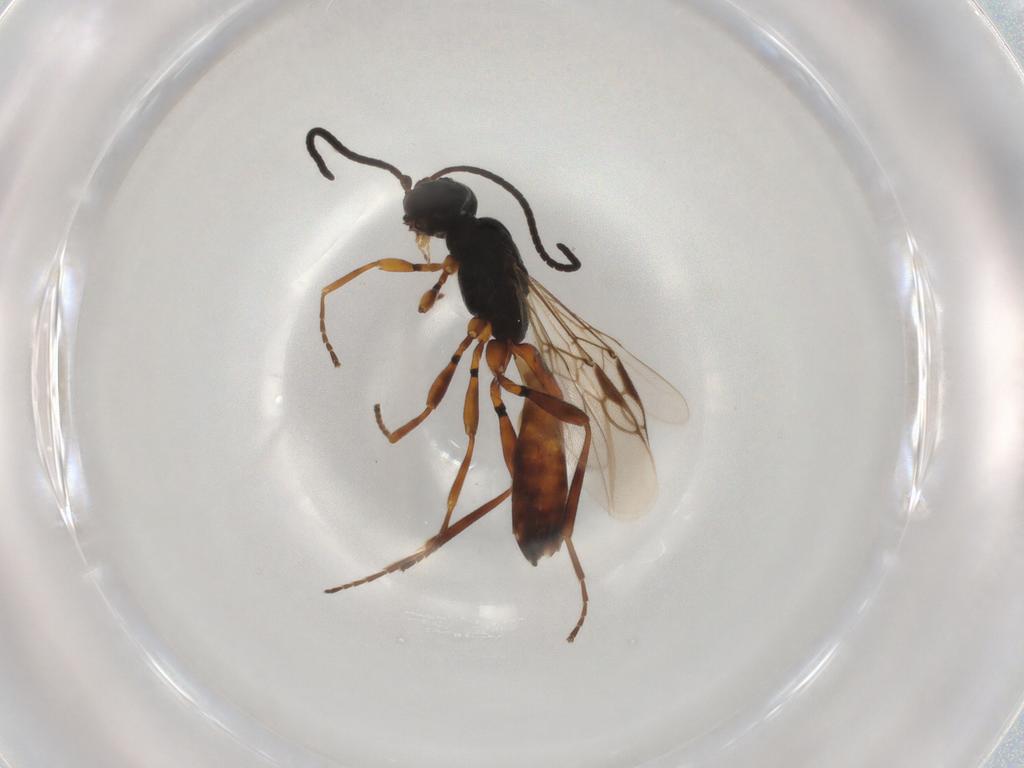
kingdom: Animalia
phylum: Arthropoda
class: Insecta
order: Hymenoptera
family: Braconidae
